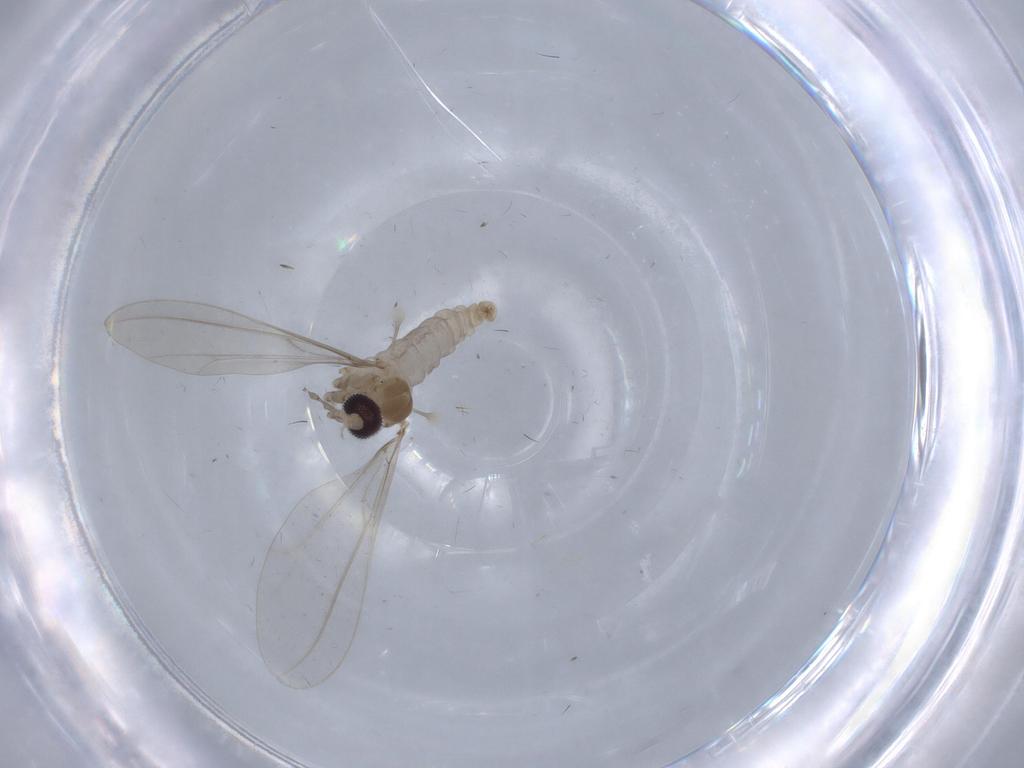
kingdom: Animalia
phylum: Arthropoda
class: Insecta
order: Diptera
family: Cecidomyiidae
